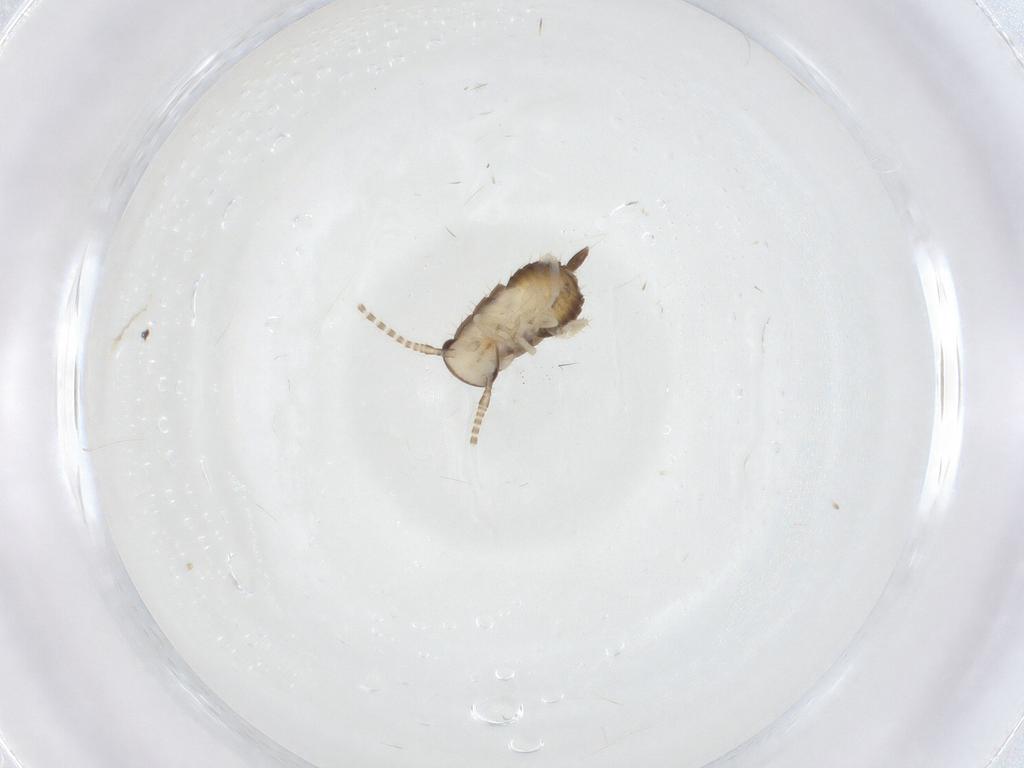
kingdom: Animalia
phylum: Arthropoda
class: Insecta
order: Blattodea
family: Ectobiidae
